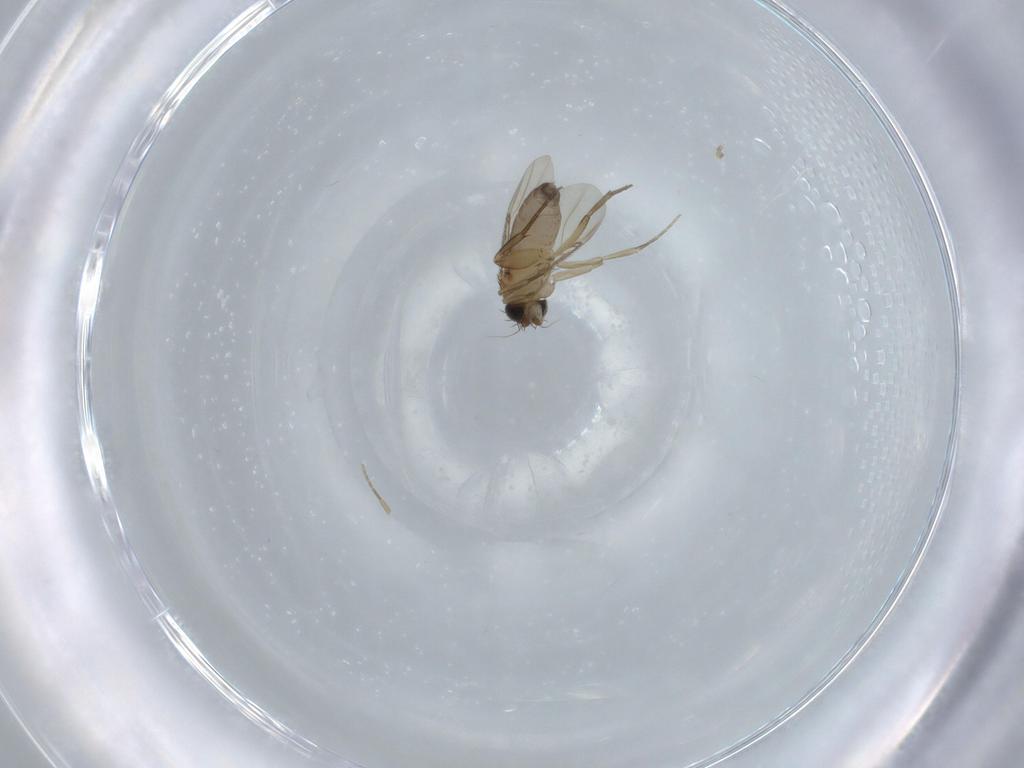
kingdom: Animalia
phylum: Arthropoda
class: Insecta
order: Diptera
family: Phoridae
